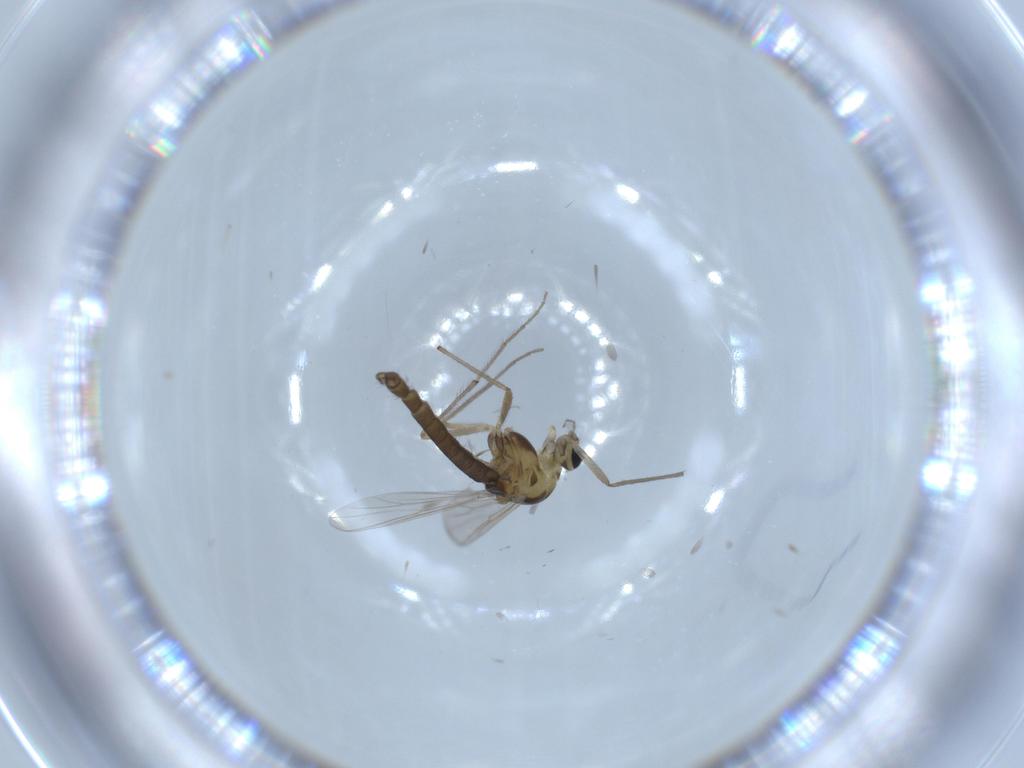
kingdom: Animalia
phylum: Arthropoda
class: Insecta
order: Diptera
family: Chironomidae
